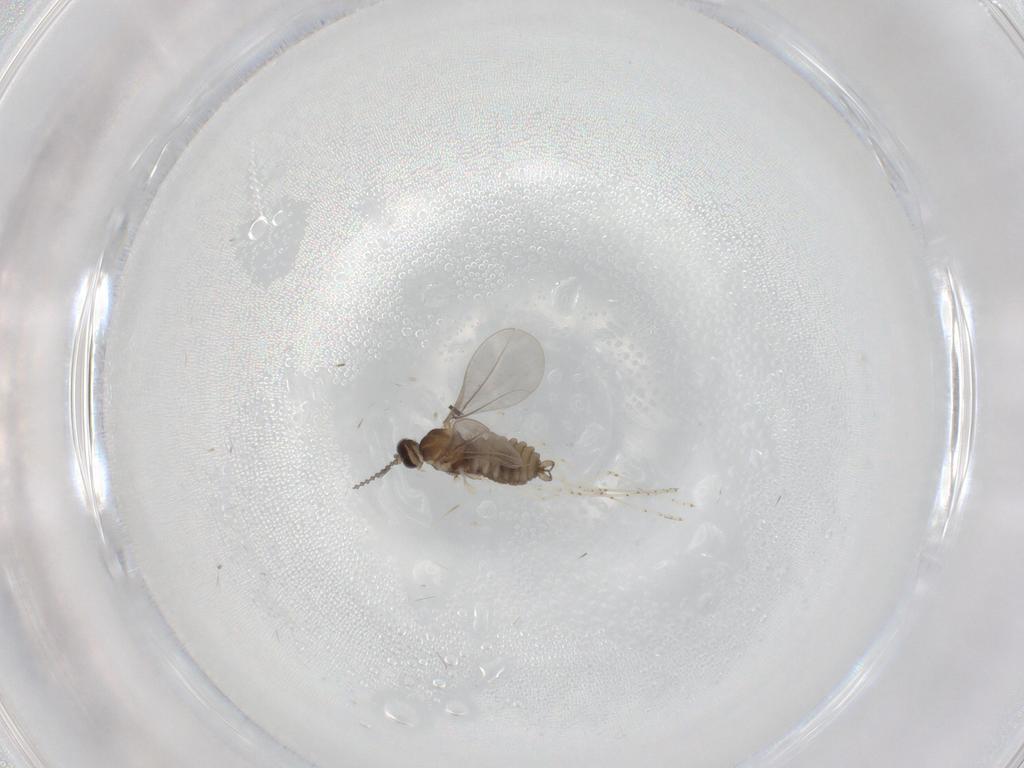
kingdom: Animalia
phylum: Arthropoda
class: Insecta
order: Diptera
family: Cecidomyiidae
